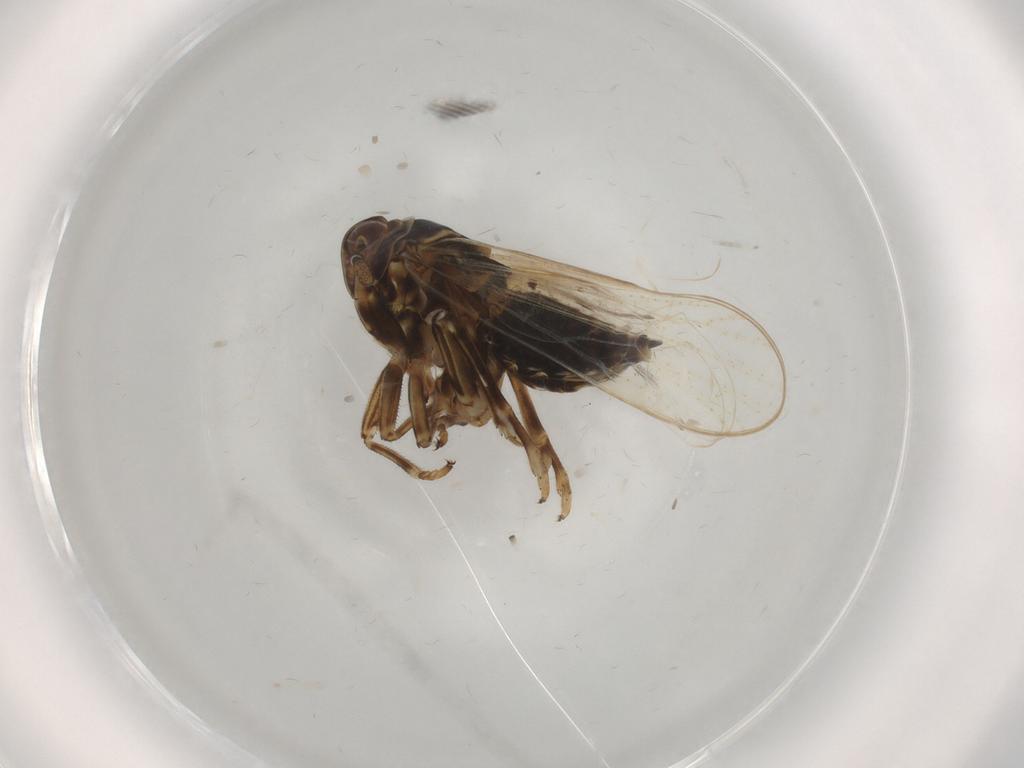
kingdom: Animalia
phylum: Arthropoda
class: Insecta
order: Hemiptera
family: Delphacidae
